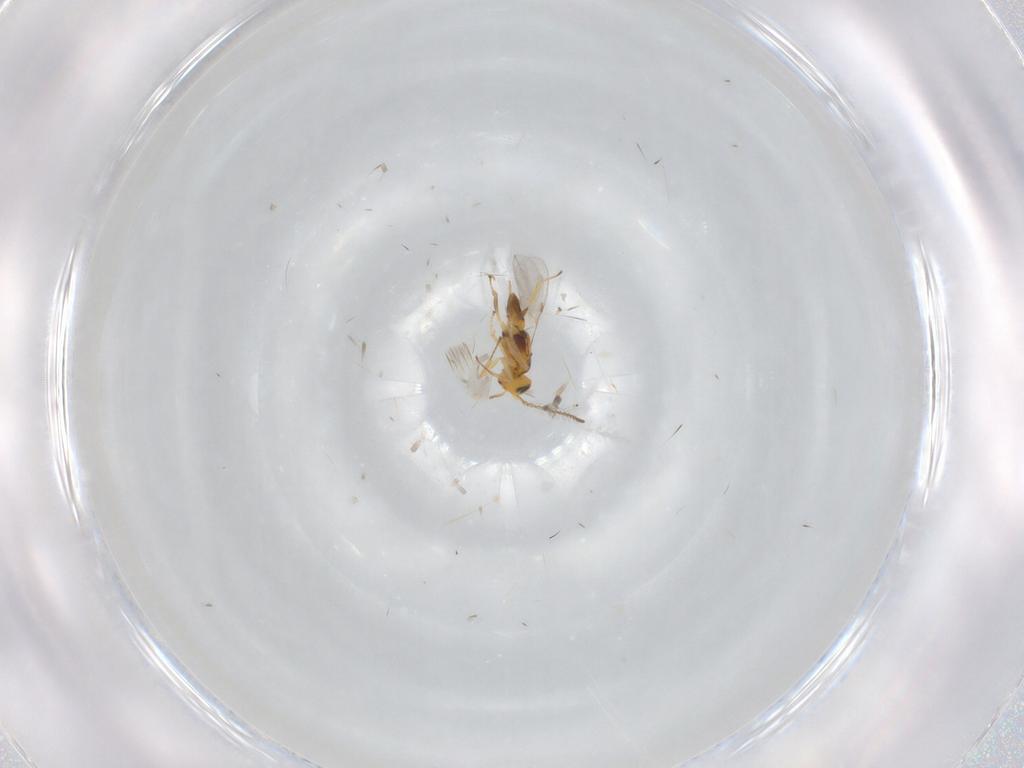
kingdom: Animalia
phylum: Arthropoda
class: Insecta
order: Hymenoptera
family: Encyrtidae
